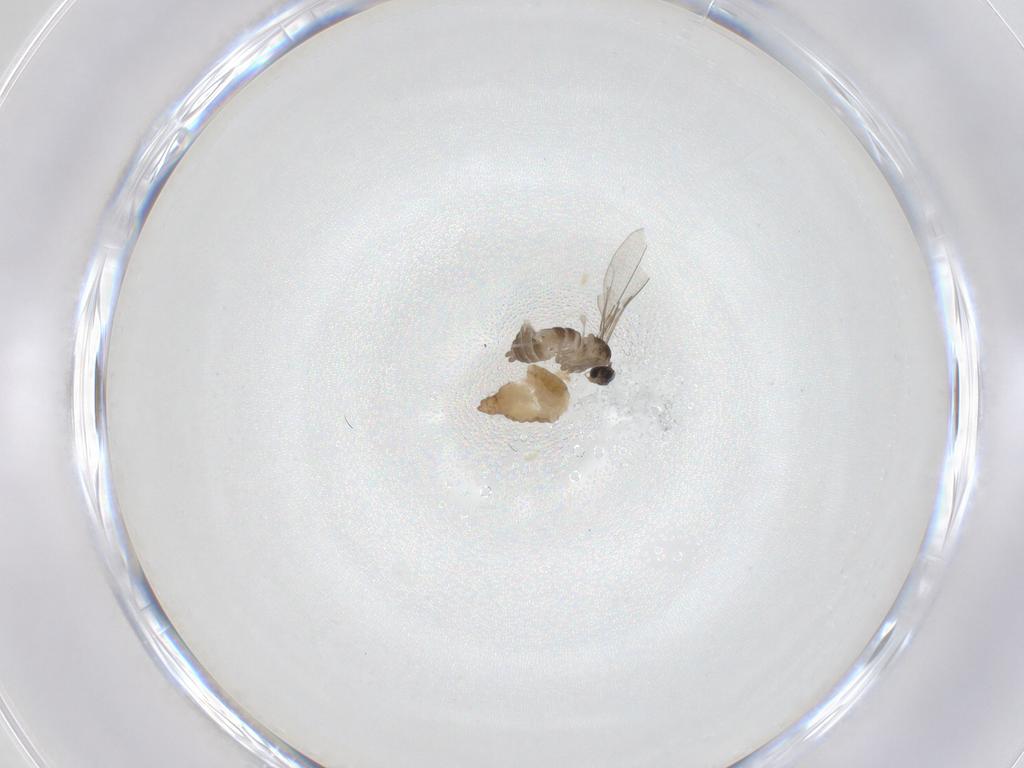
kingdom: Animalia
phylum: Arthropoda
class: Insecta
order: Diptera
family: Chironomidae
